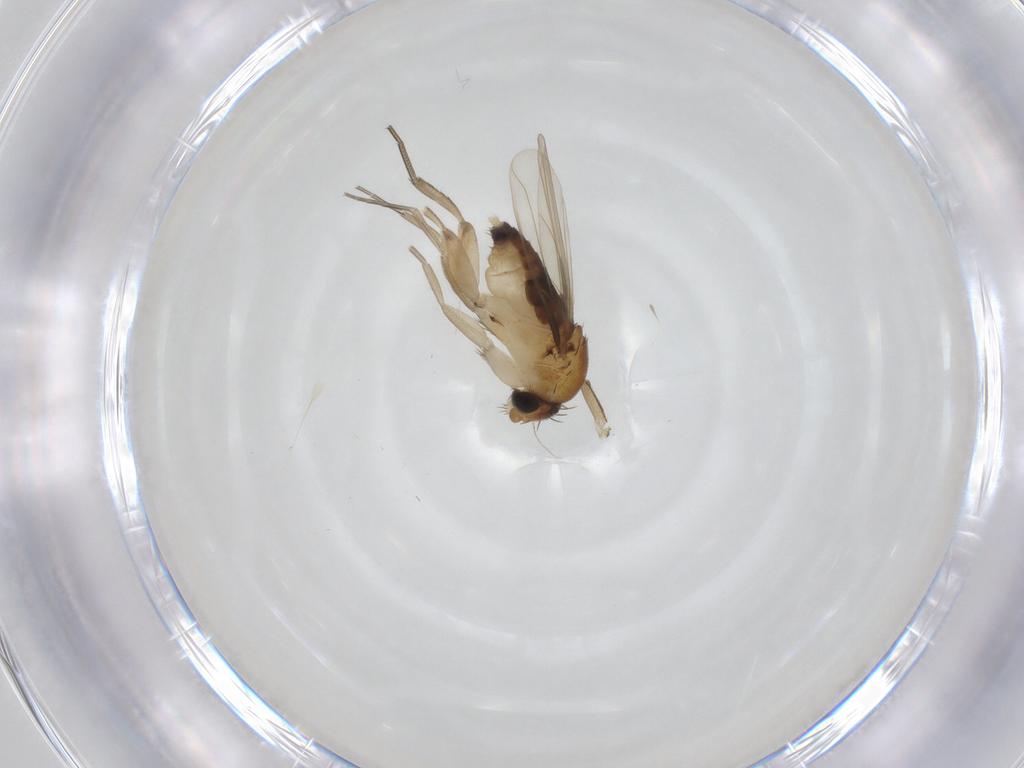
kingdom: Animalia
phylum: Arthropoda
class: Insecta
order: Diptera
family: Phoridae
